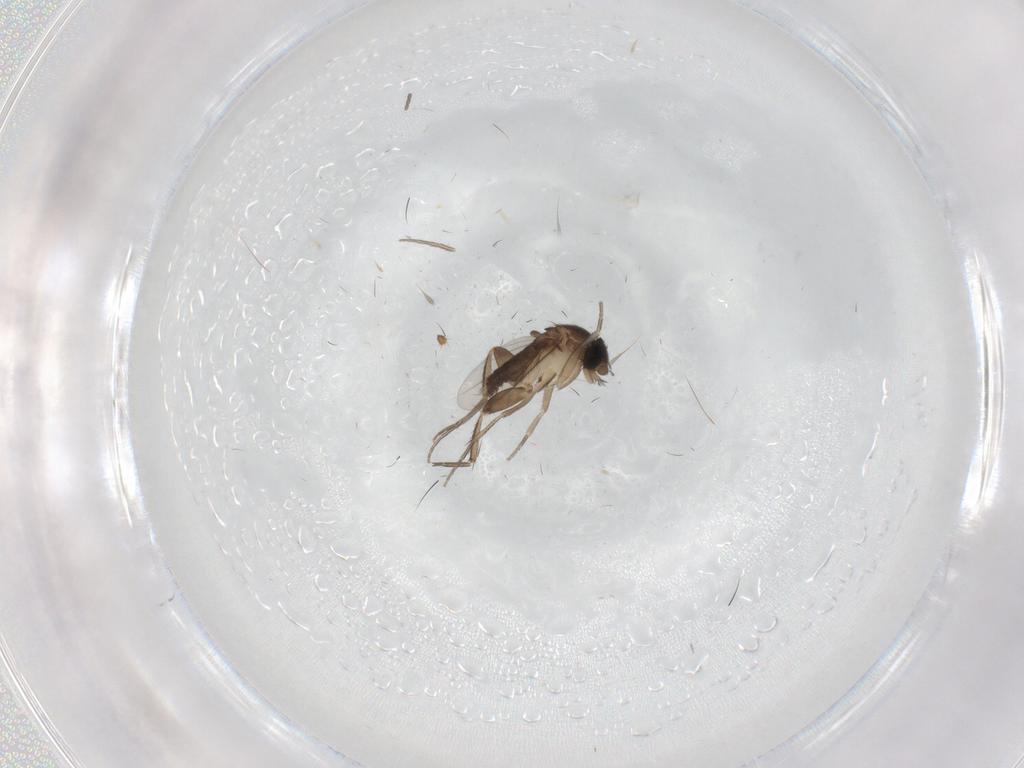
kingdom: Animalia
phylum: Arthropoda
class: Insecta
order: Diptera
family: Phoridae
